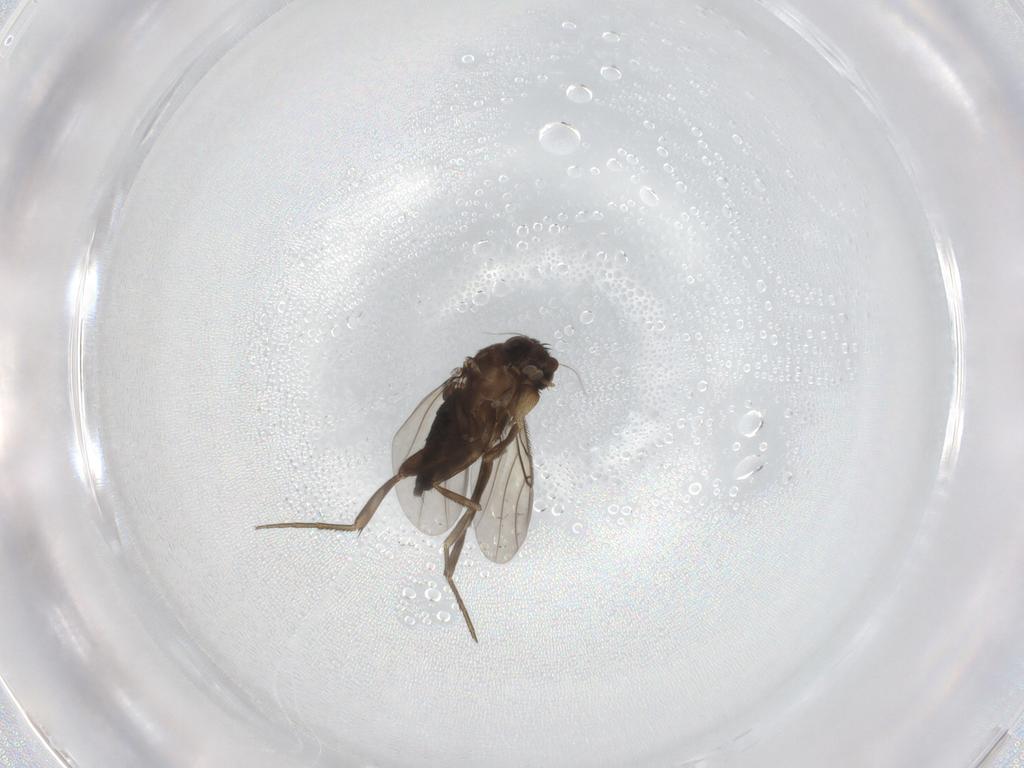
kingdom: Animalia
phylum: Arthropoda
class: Insecta
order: Diptera
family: Phoridae
